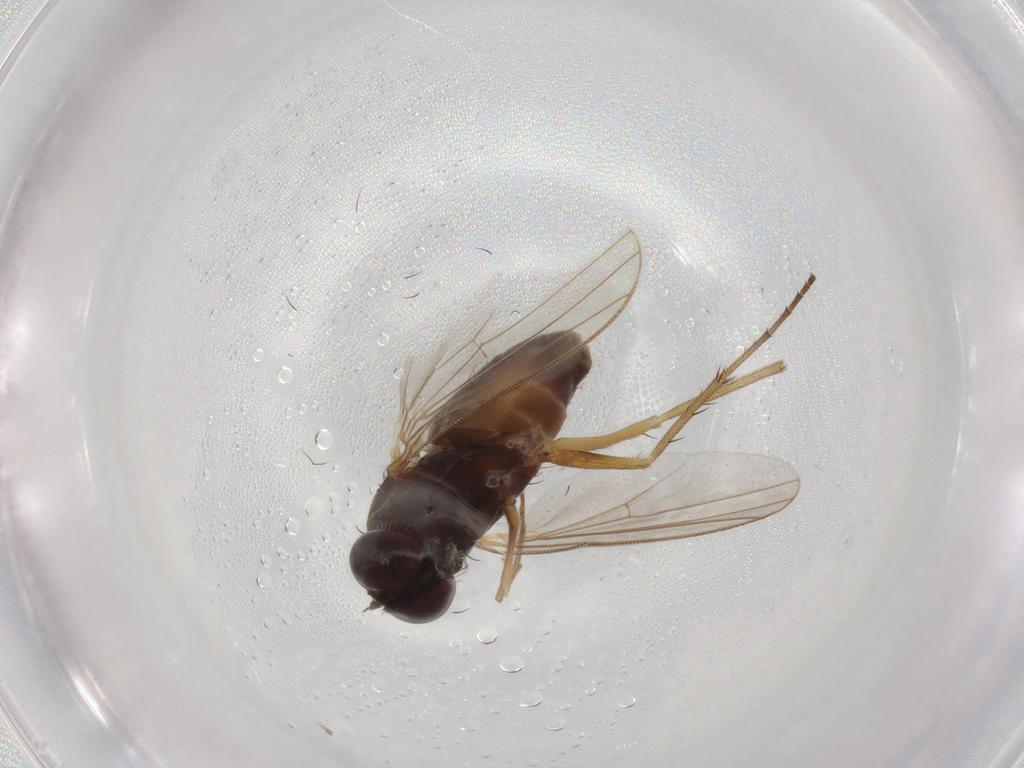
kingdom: Animalia
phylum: Arthropoda
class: Insecta
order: Diptera
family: Dolichopodidae
